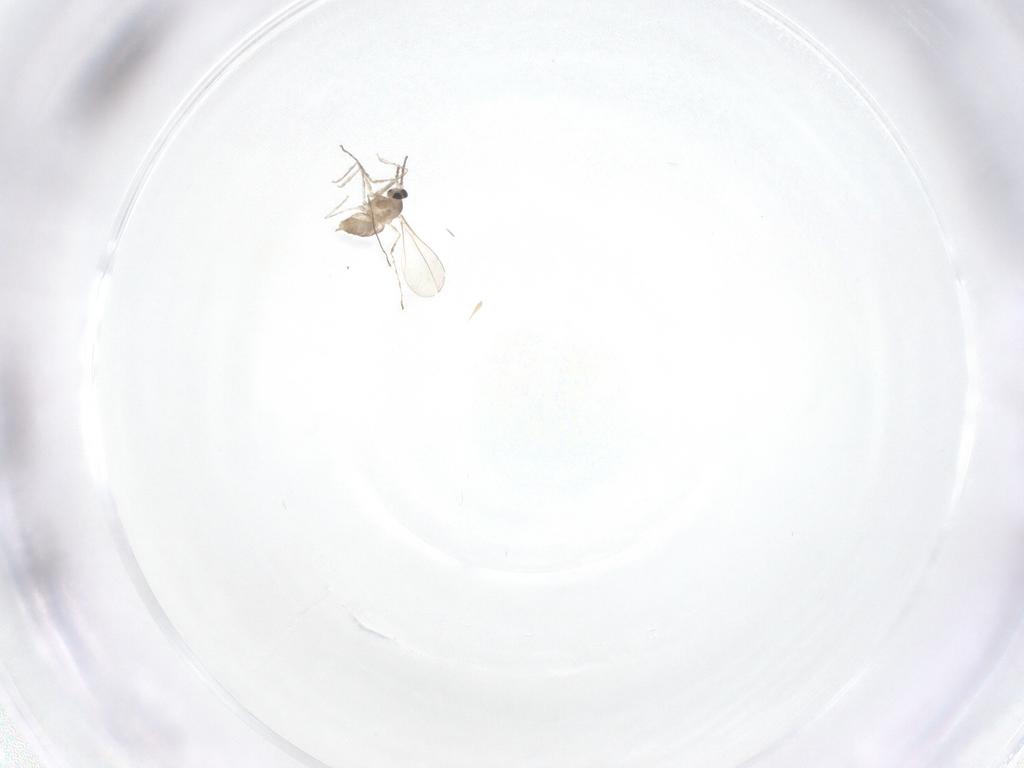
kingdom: Animalia
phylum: Arthropoda
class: Insecta
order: Diptera
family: Cecidomyiidae
